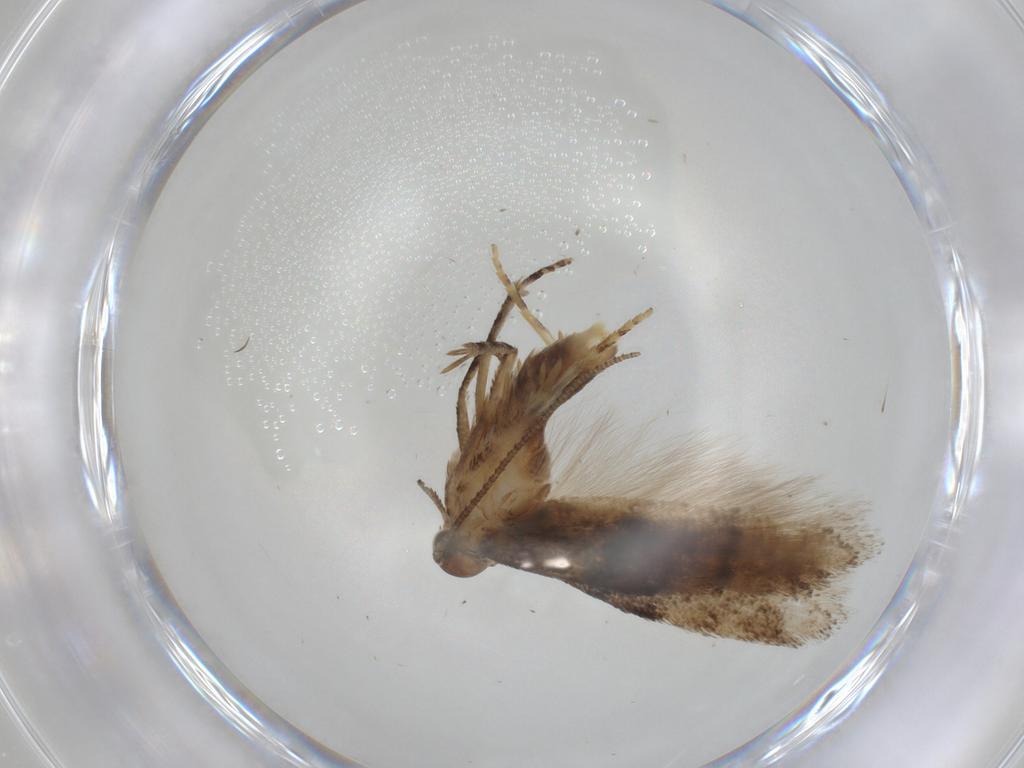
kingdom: Animalia
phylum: Arthropoda
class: Insecta
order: Lepidoptera
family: Gelechiidae
